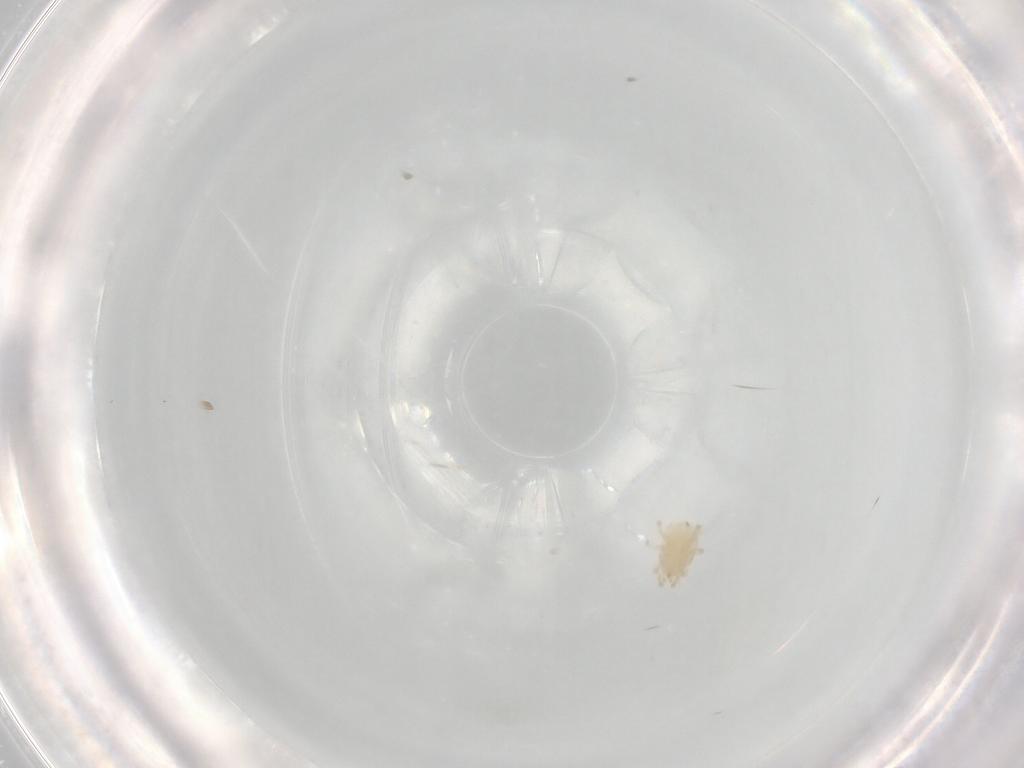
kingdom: Animalia
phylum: Arthropoda
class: Arachnida
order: Mesostigmata
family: Melicharidae
